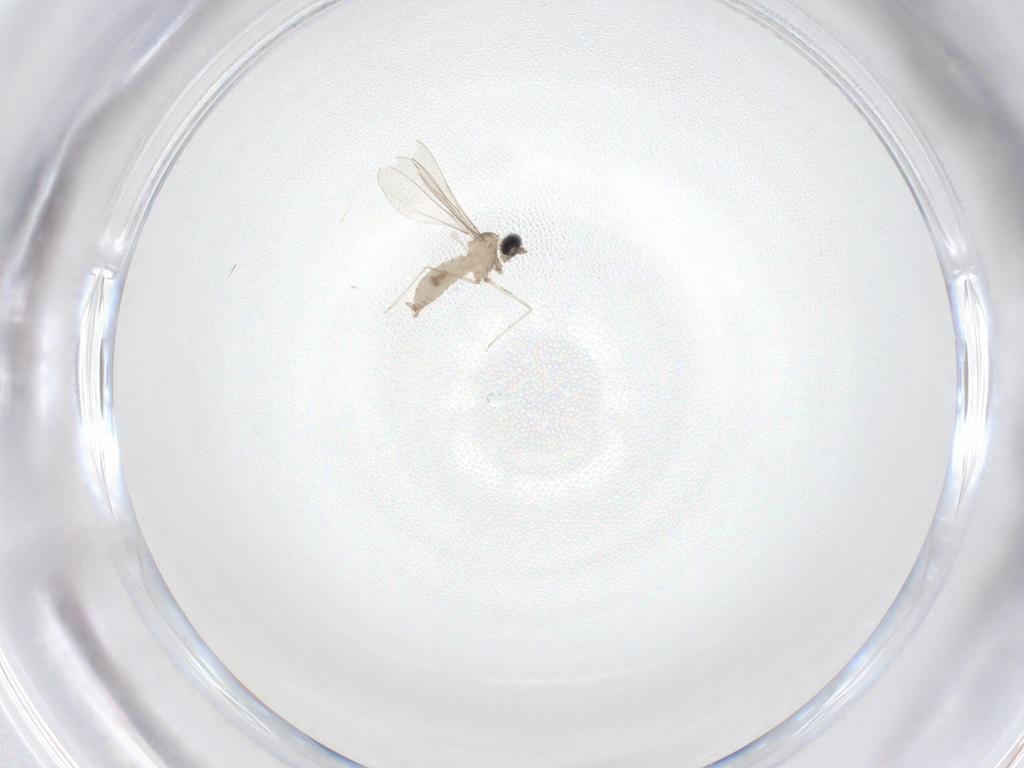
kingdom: Animalia
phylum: Arthropoda
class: Insecta
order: Diptera
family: Cecidomyiidae
